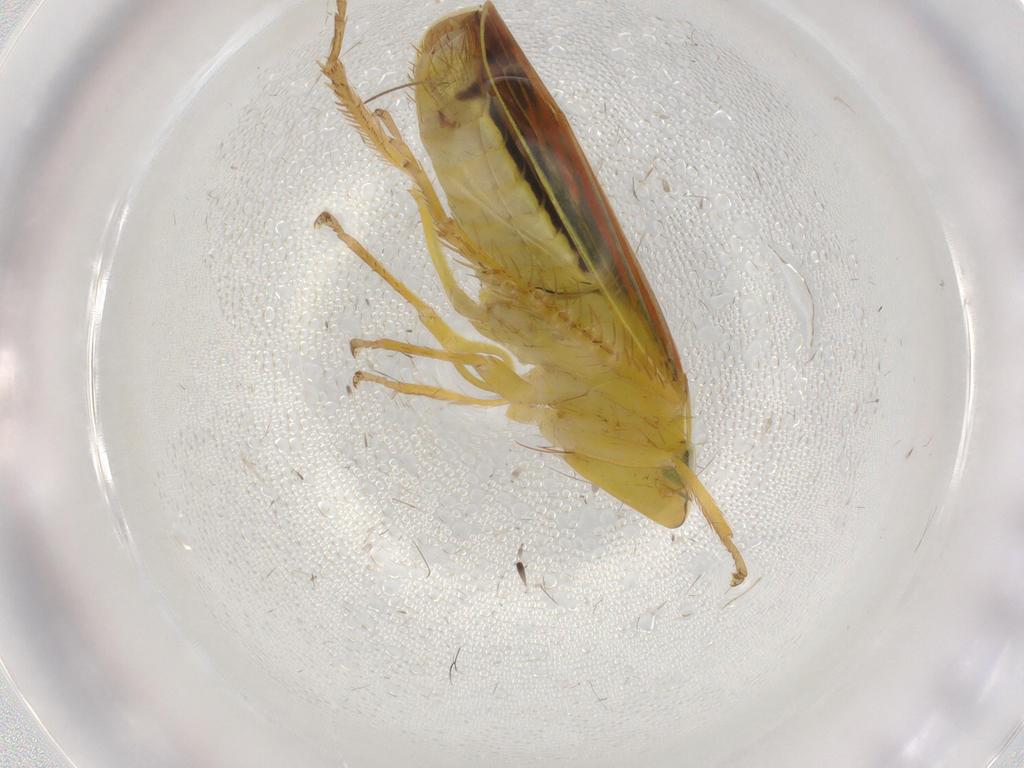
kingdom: Animalia
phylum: Arthropoda
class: Insecta
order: Hemiptera
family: Cicadellidae
